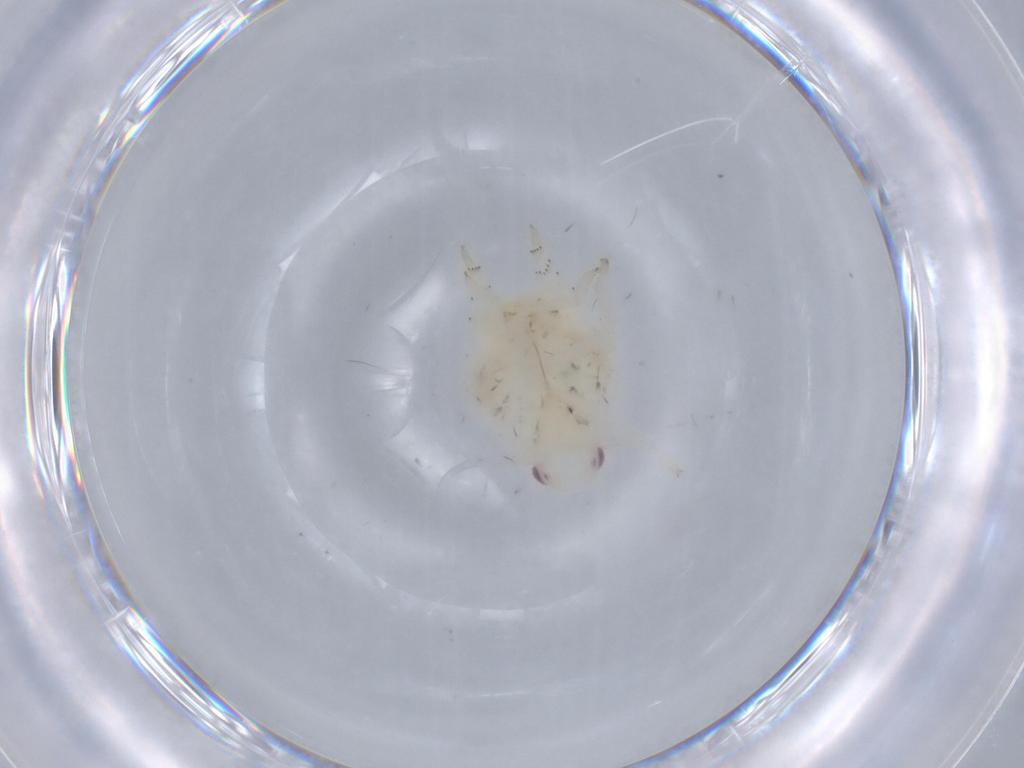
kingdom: Animalia
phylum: Arthropoda
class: Insecta
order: Hemiptera
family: Flatidae
